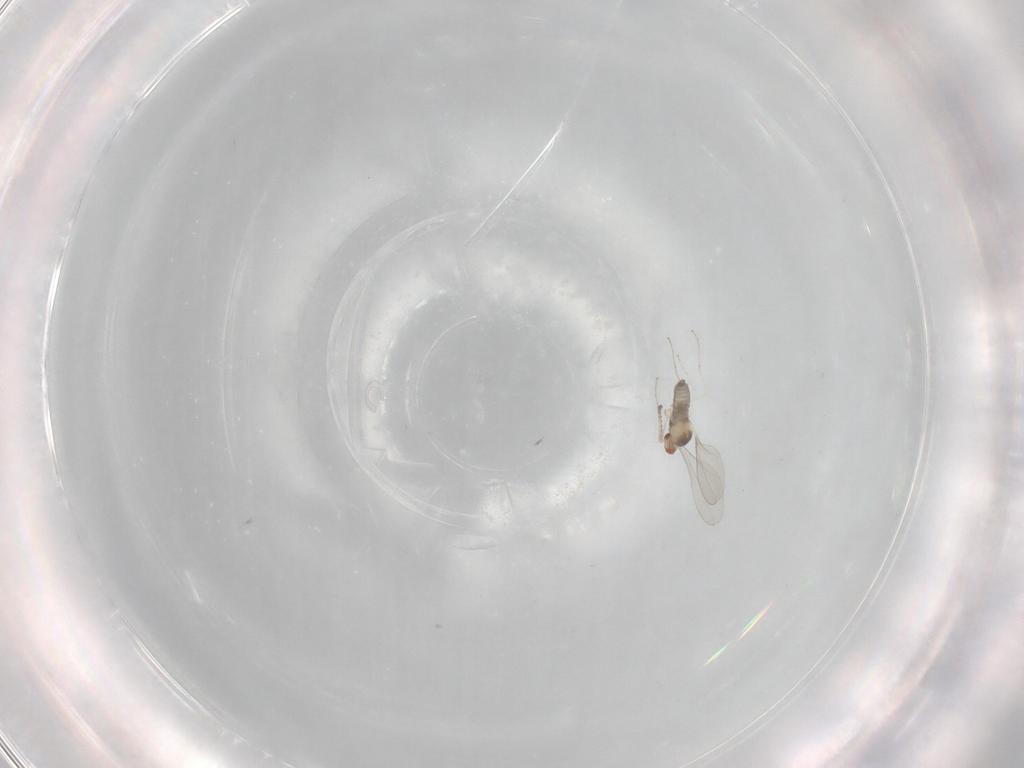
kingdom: Animalia
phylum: Arthropoda
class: Insecta
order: Diptera
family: Cecidomyiidae
